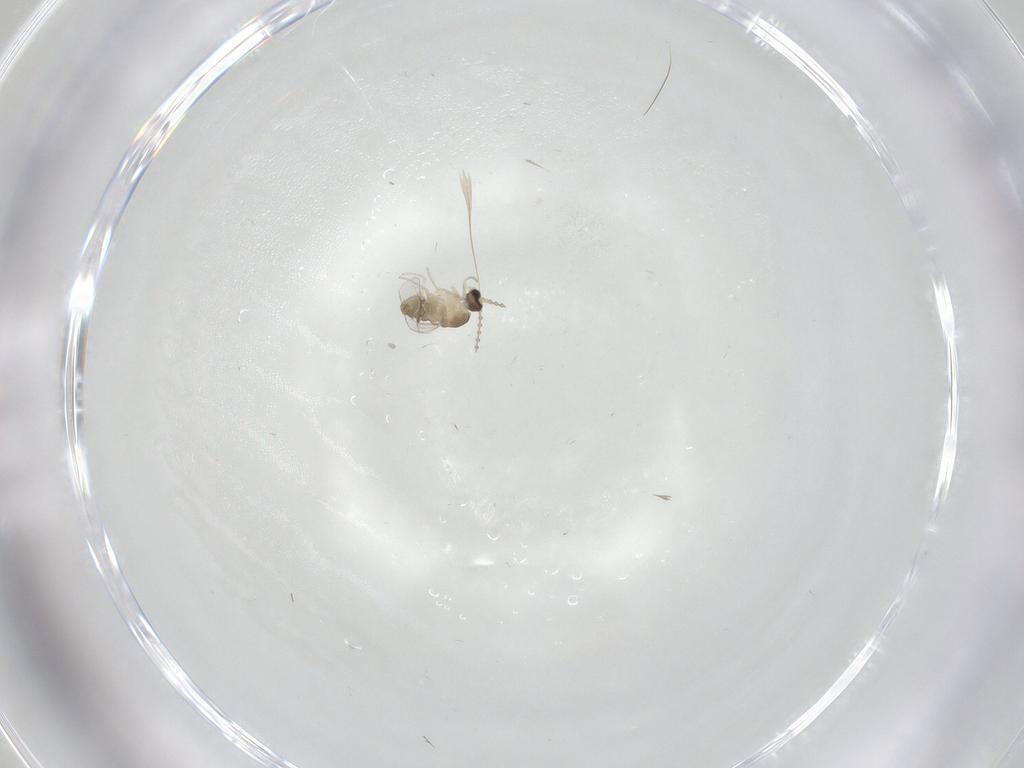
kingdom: Animalia
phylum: Arthropoda
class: Insecta
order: Diptera
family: Cecidomyiidae
